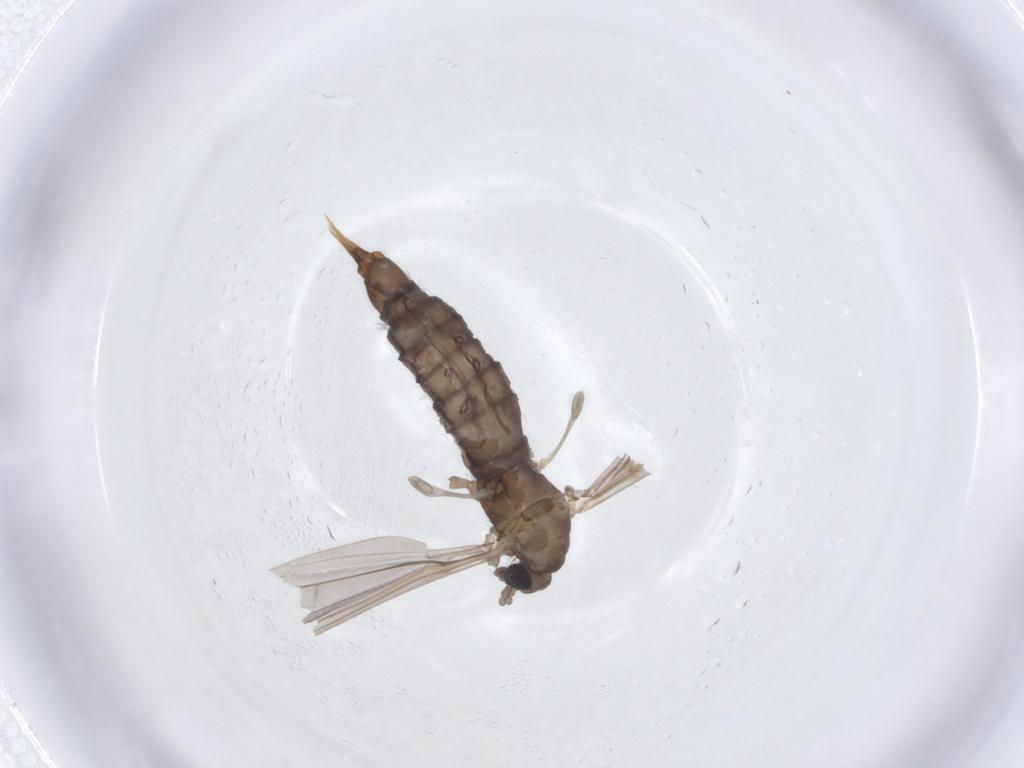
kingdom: Animalia
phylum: Arthropoda
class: Insecta
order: Diptera
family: Limoniidae
